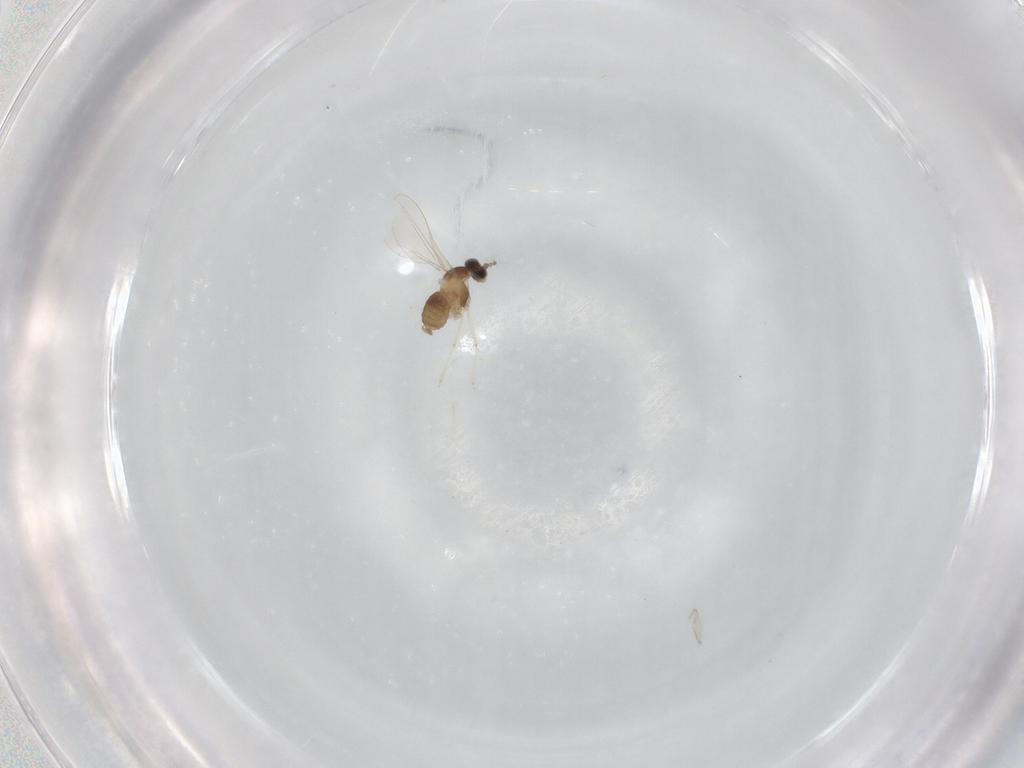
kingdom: Animalia
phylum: Arthropoda
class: Insecta
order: Diptera
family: Cecidomyiidae
